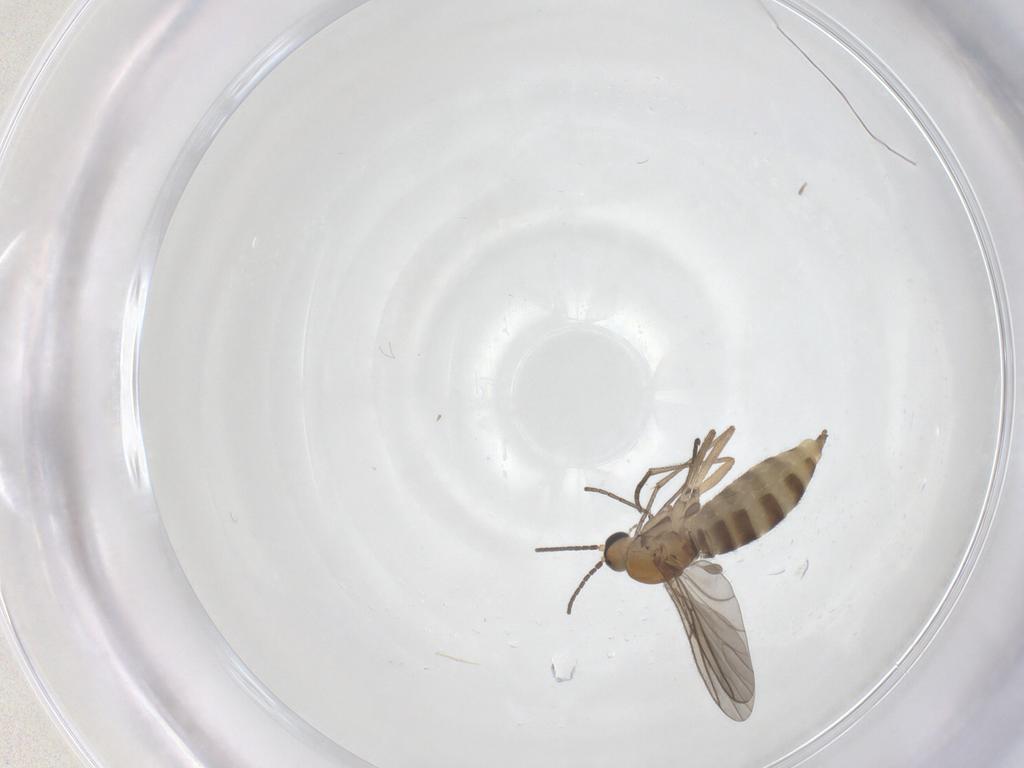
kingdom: Animalia
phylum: Arthropoda
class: Insecta
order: Diptera
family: Sciaridae
